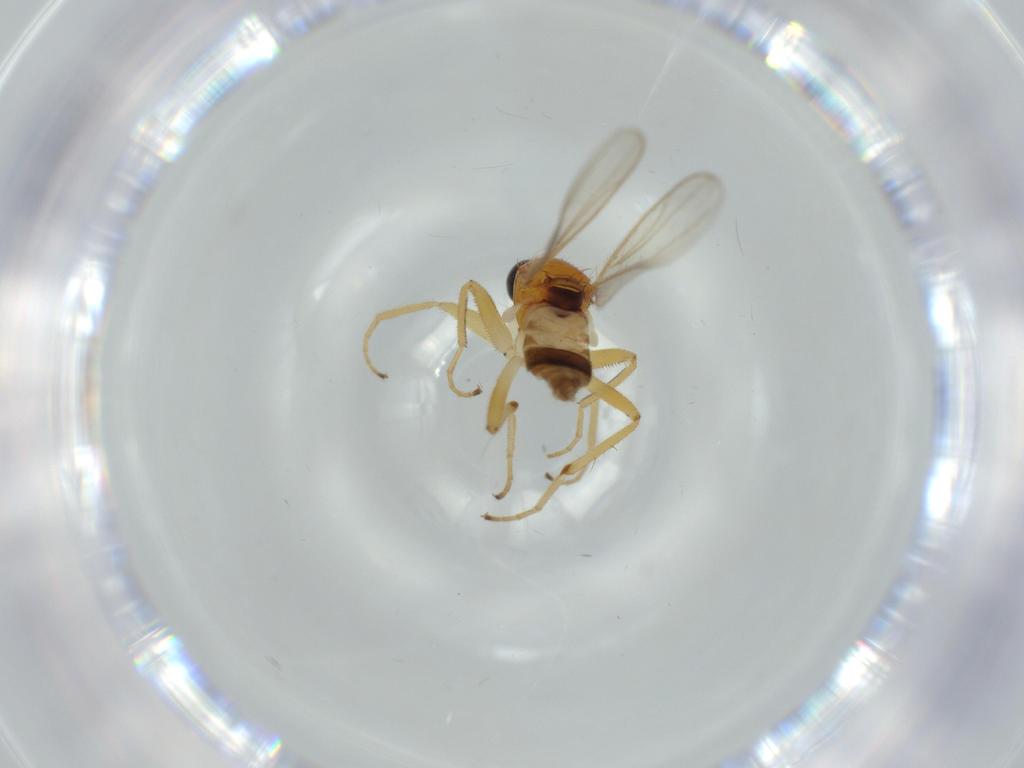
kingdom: Animalia
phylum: Arthropoda
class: Insecta
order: Diptera
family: Hybotidae
